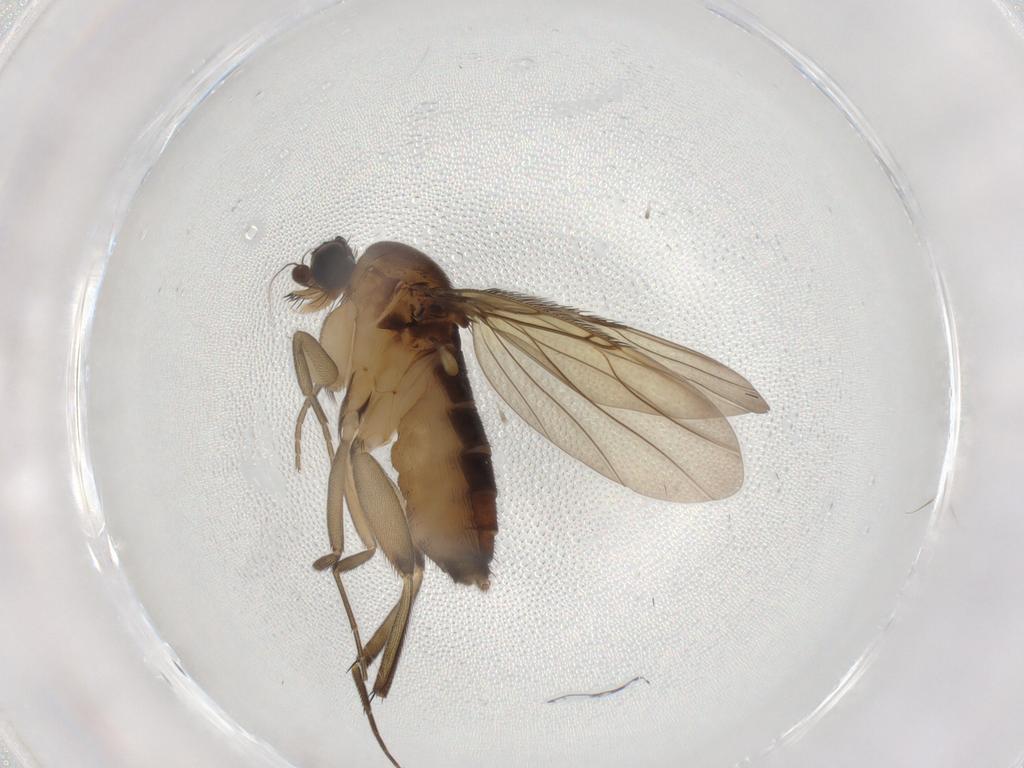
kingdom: Animalia
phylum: Arthropoda
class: Insecta
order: Diptera
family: Phoridae
